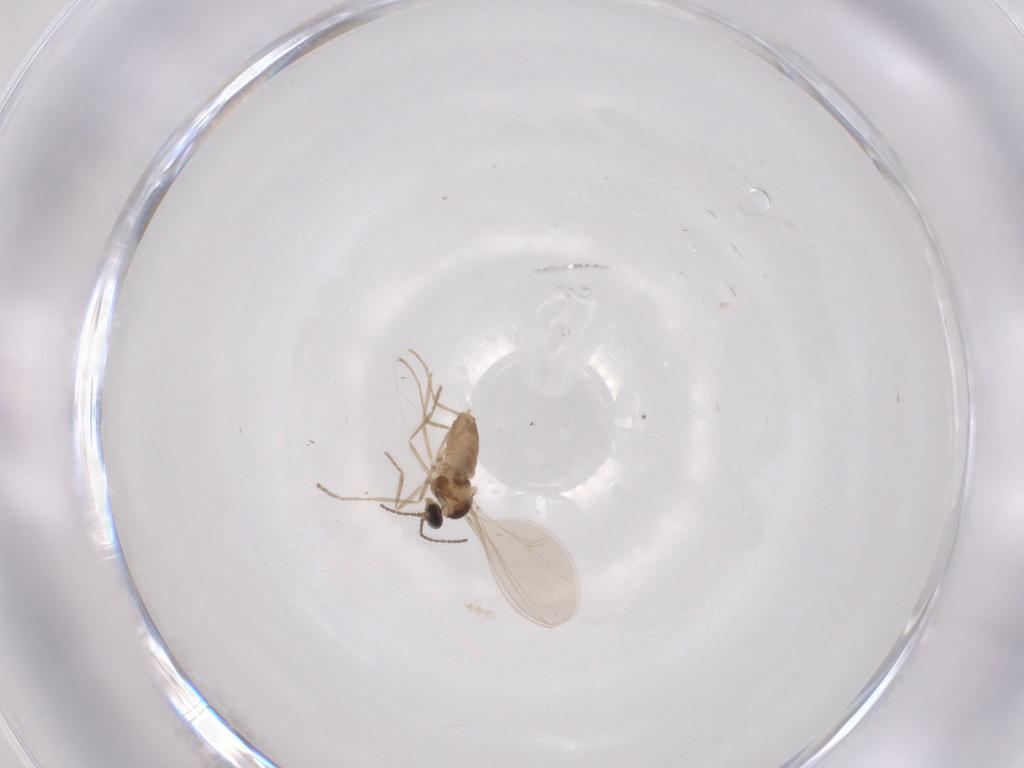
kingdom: Animalia
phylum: Arthropoda
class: Insecta
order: Diptera
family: Cecidomyiidae
